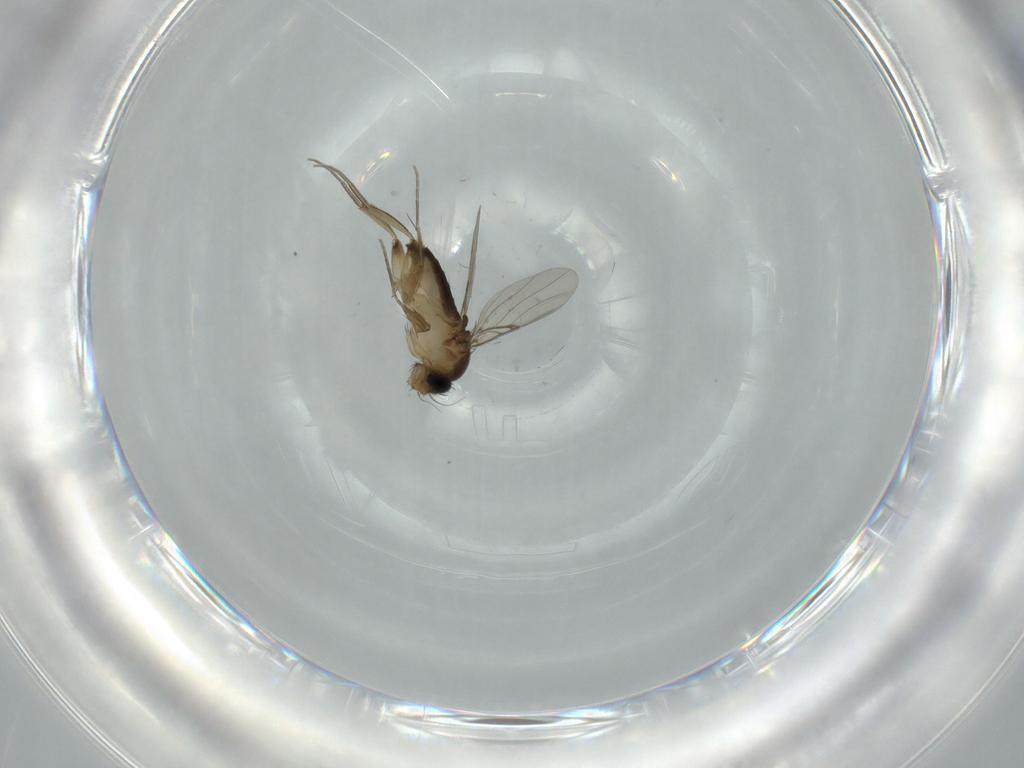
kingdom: Animalia
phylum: Arthropoda
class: Insecta
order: Diptera
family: Phoridae
